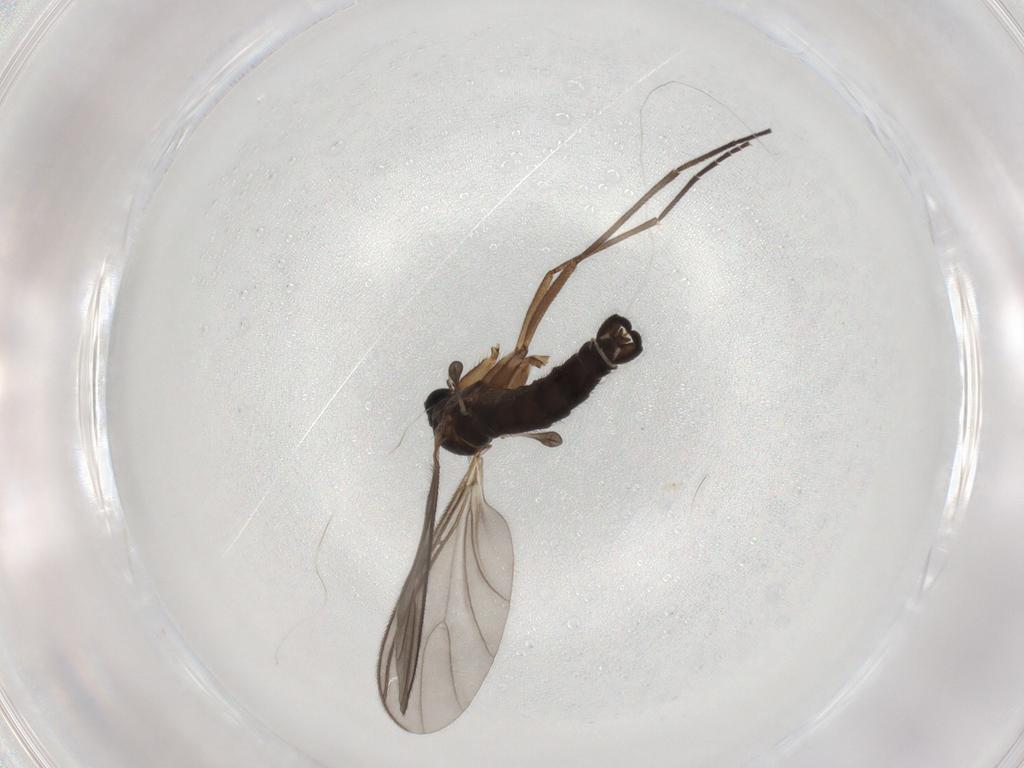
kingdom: Animalia
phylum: Arthropoda
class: Insecta
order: Diptera
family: Sciaridae
